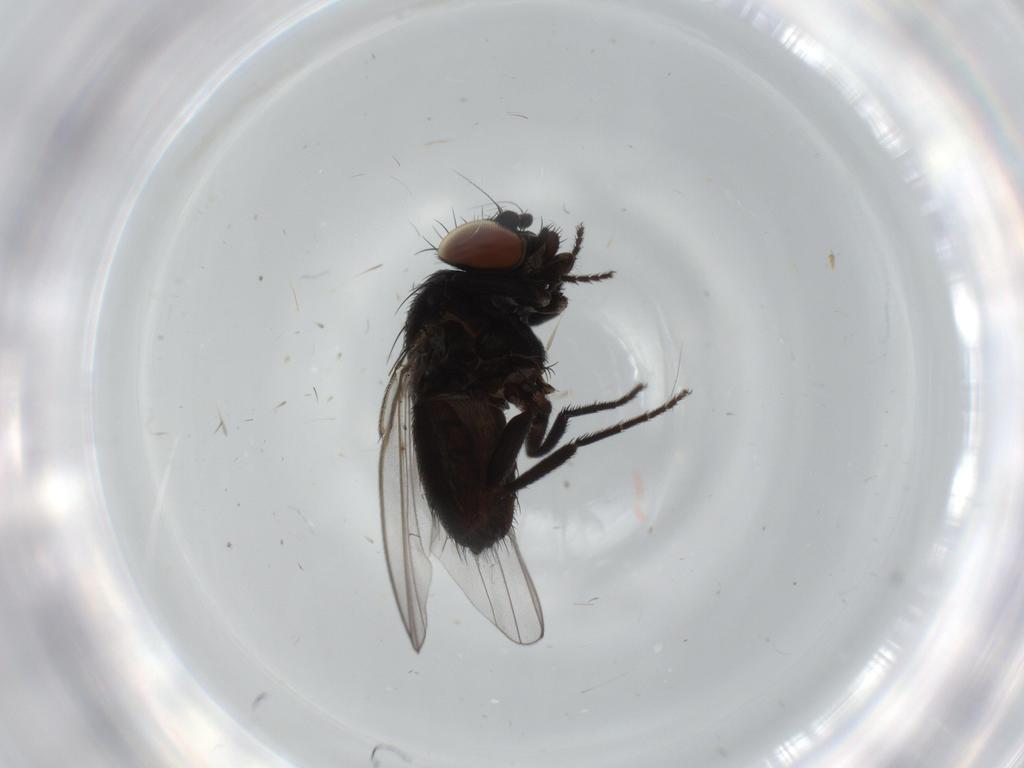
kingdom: Animalia
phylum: Arthropoda
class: Insecta
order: Diptera
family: Milichiidae
